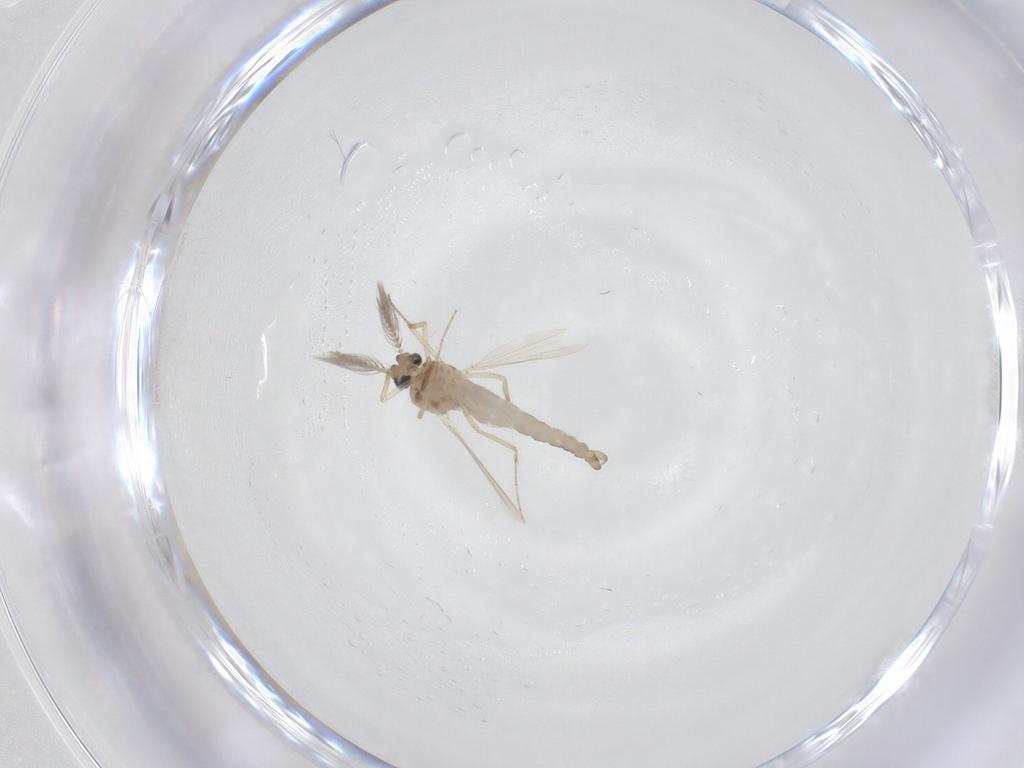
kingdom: Animalia
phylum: Arthropoda
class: Insecta
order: Diptera
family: Ceratopogonidae
